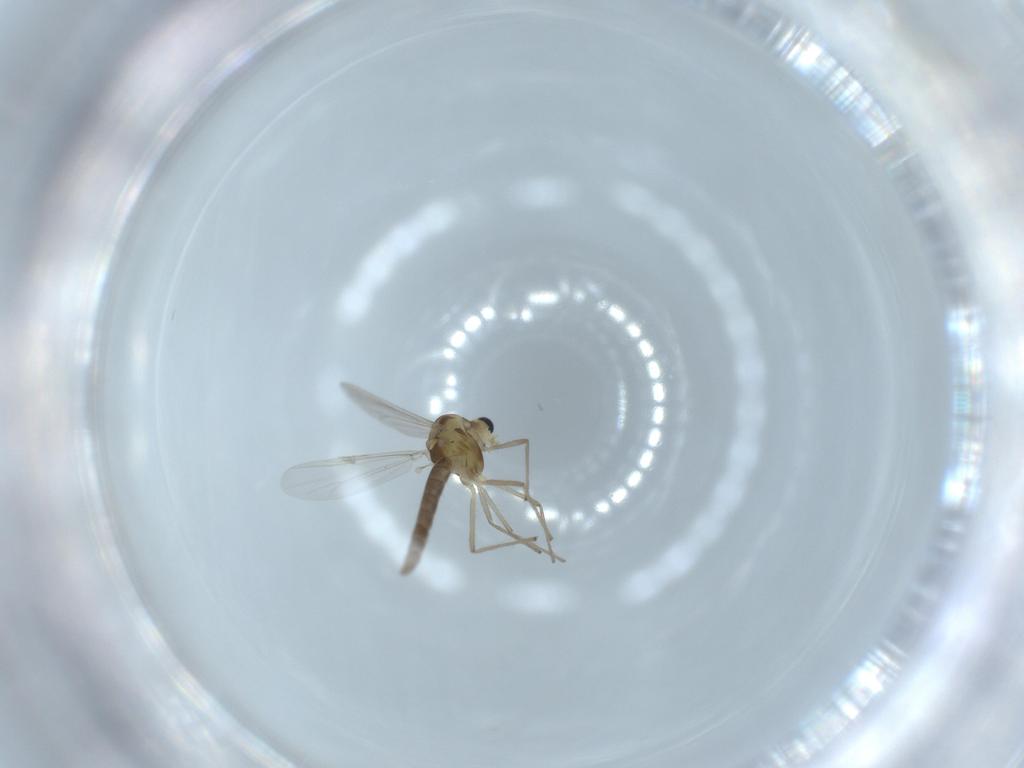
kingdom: Animalia
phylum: Arthropoda
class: Insecta
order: Diptera
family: Chironomidae
